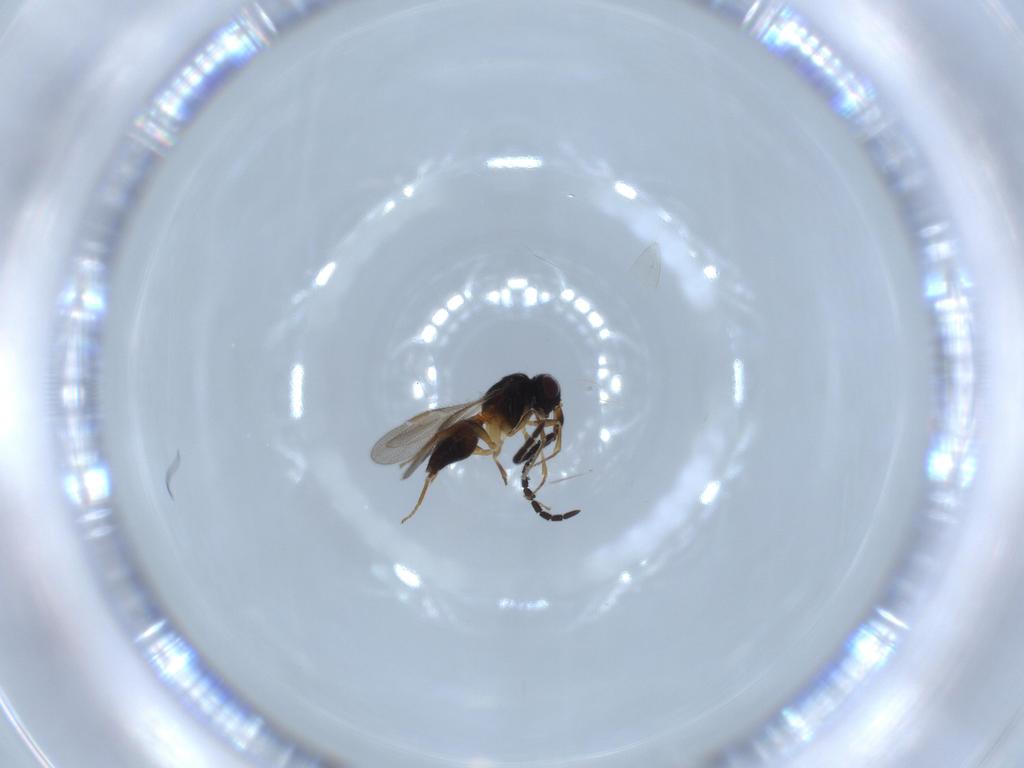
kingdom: Animalia
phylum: Arthropoda
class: Insecta
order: Hymenoptera
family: Megaspilidae
